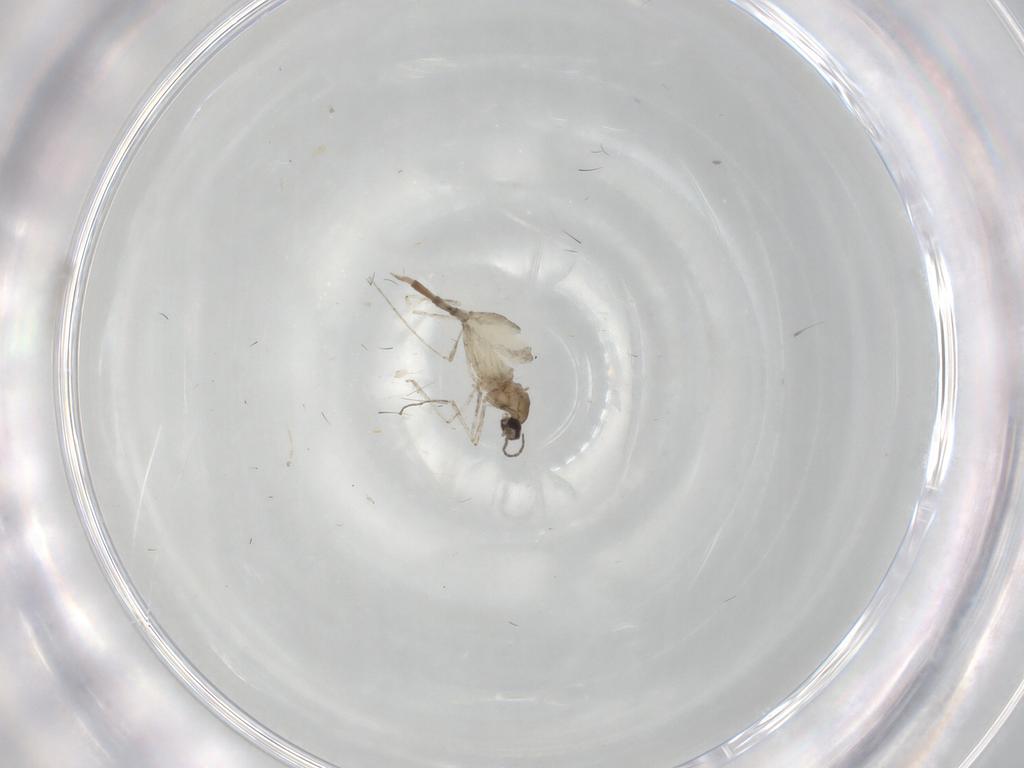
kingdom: Animalia
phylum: Arthropoda
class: Insecta
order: Diptera
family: Cecidomyiidae
